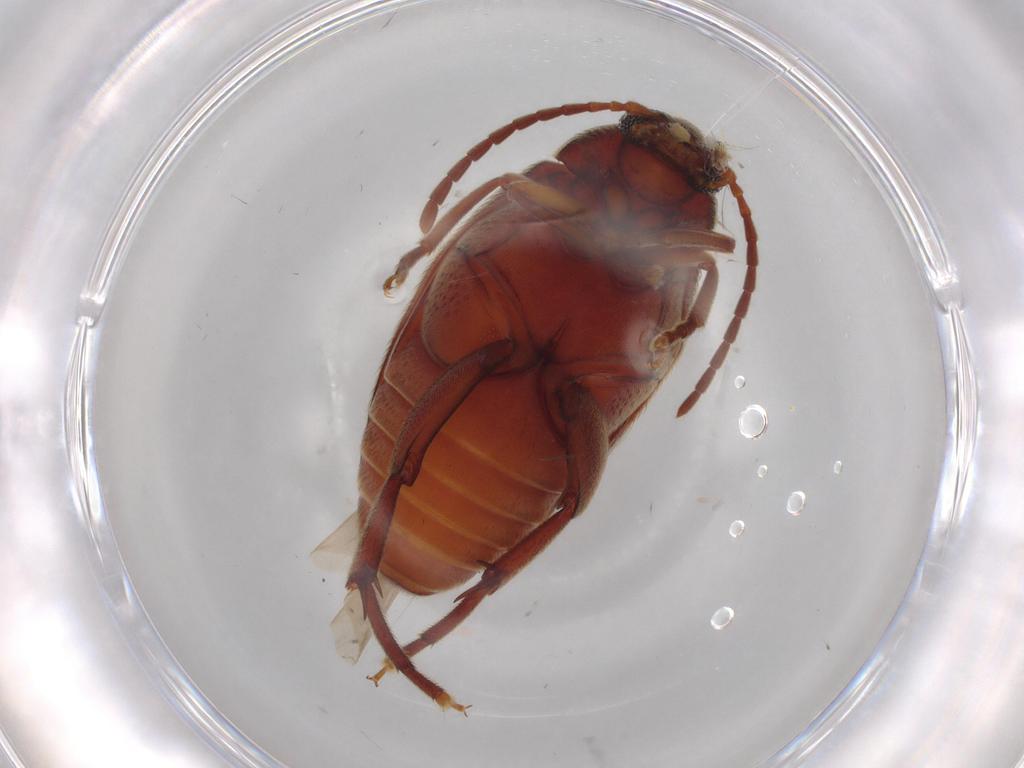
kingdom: Animalia
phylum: Arthropoda
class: Insecta
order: Coleoptera
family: Chrysomelidae
